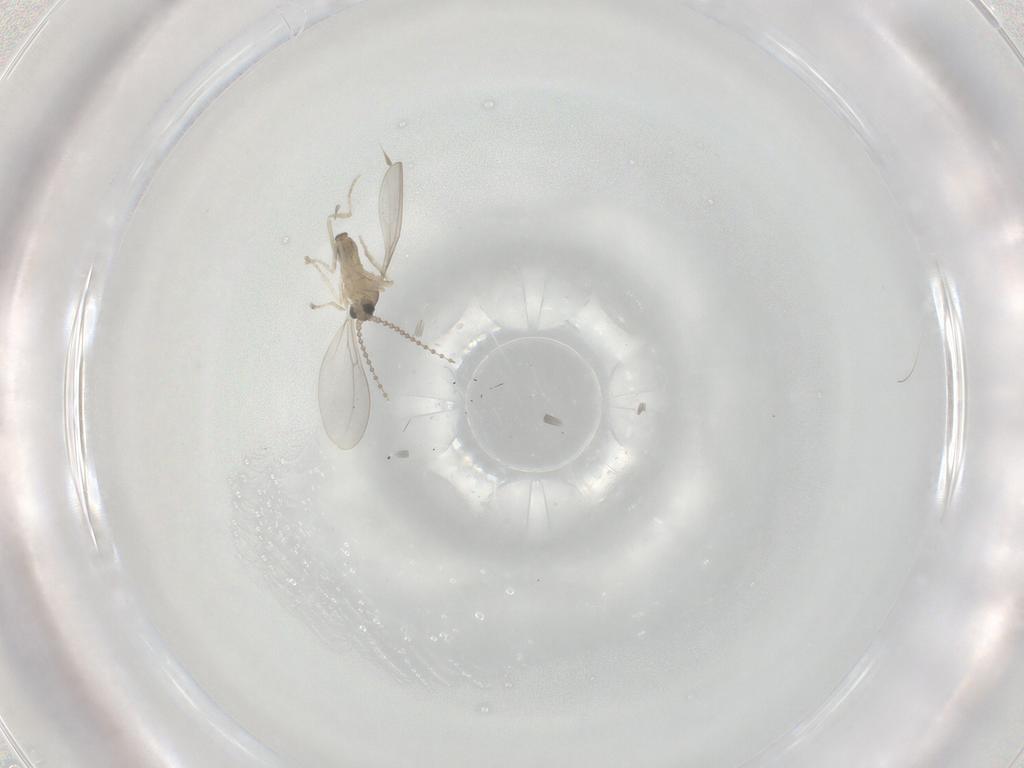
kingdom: Animalia
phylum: Arthropoda
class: Insecta
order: Diptera
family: Cecidomyiidae
